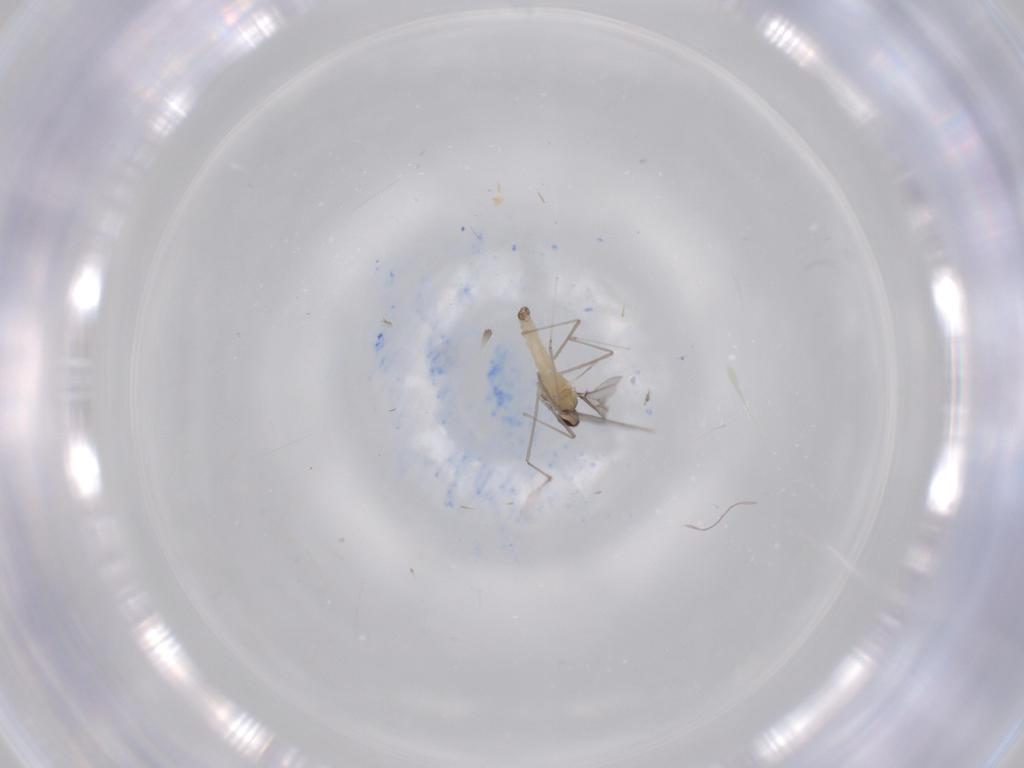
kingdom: Animalia
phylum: Arthropoda
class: Insecta
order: Diptera
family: Cecidomyiidae
